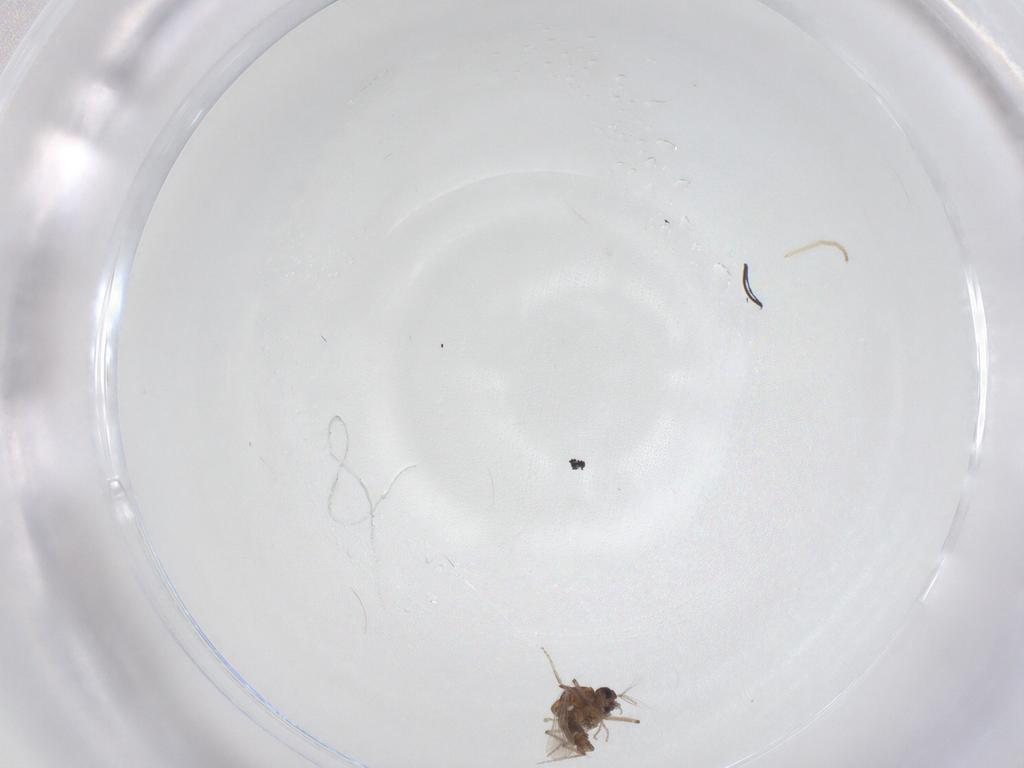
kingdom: Animalia
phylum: Arthropoda
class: Insecta
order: Diptera
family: Ceratopogonidae
